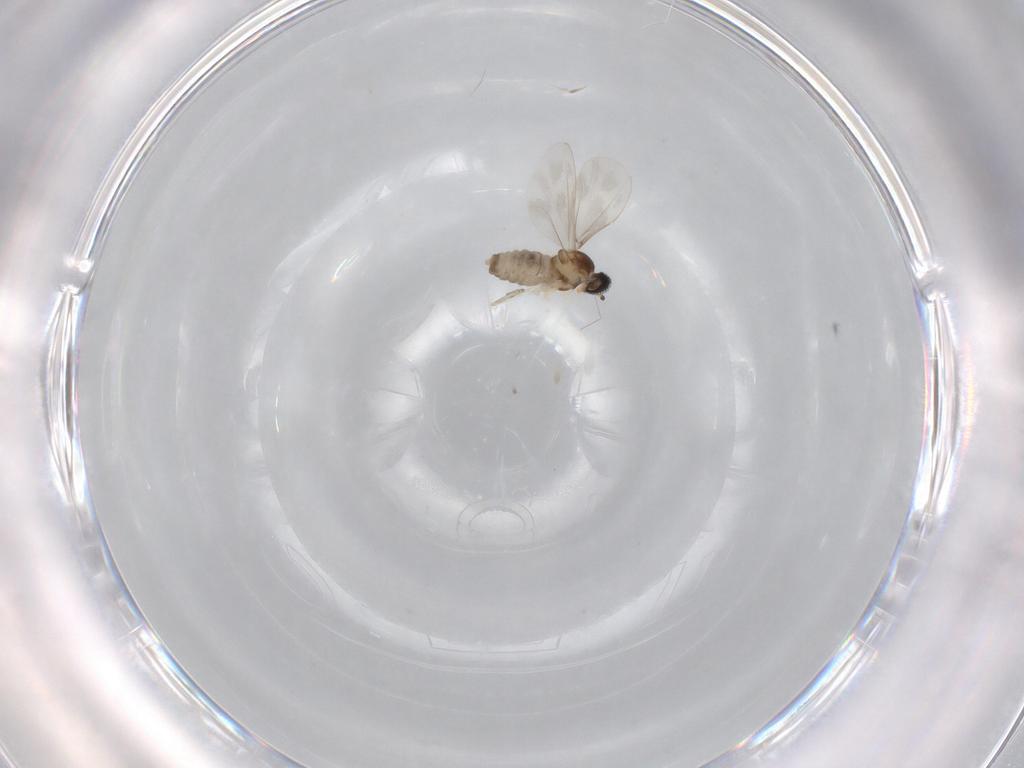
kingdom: Animalia
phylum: Arthropoda
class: Insecta
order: Diptera
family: Cecidomyiidae
